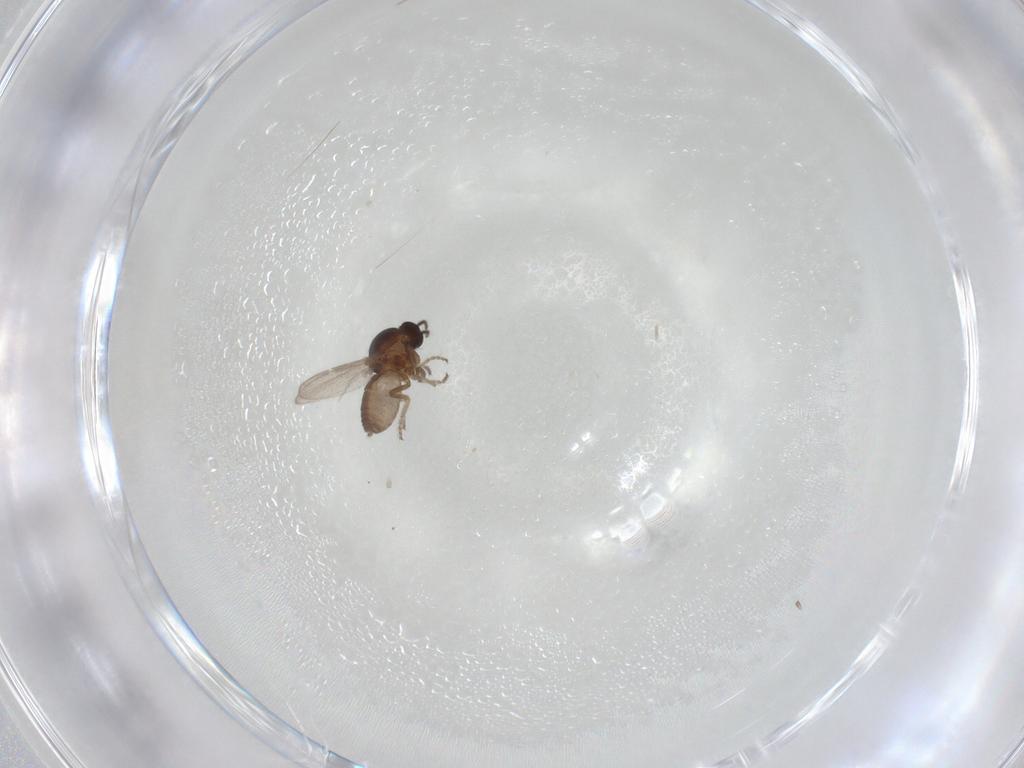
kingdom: Animalia
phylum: Arthropoda
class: Insecta
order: Diptera
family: Ceratopogonidae
